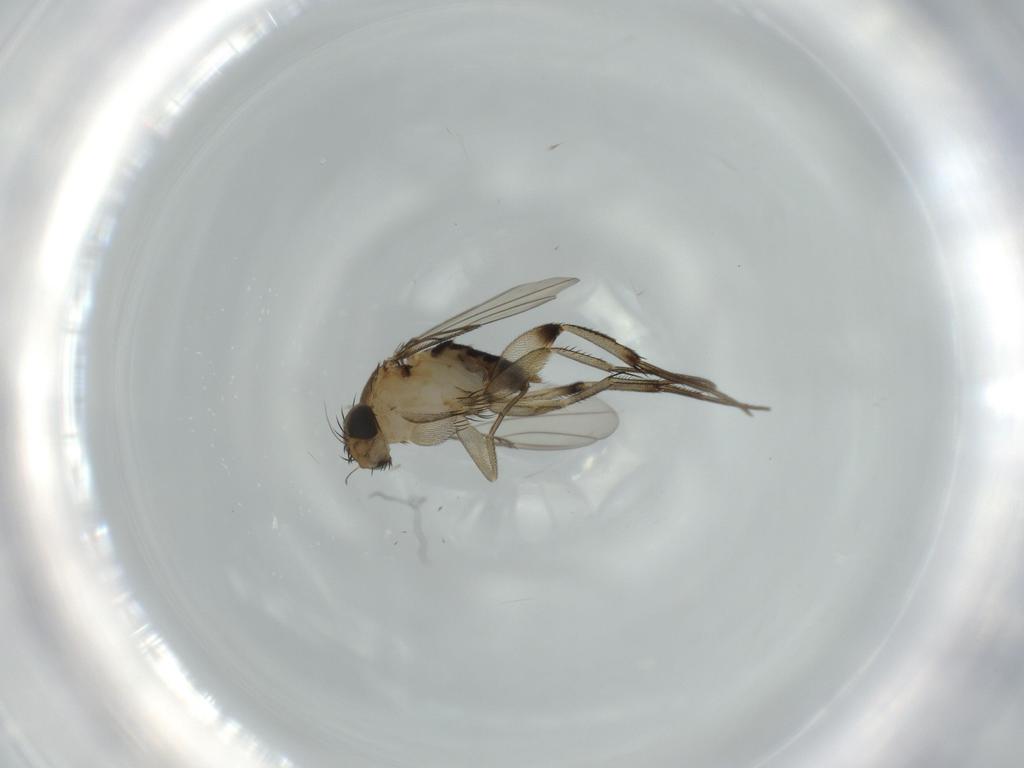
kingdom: Animalia
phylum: Arthropoda
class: Insecta
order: Diptera
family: Phoridae
